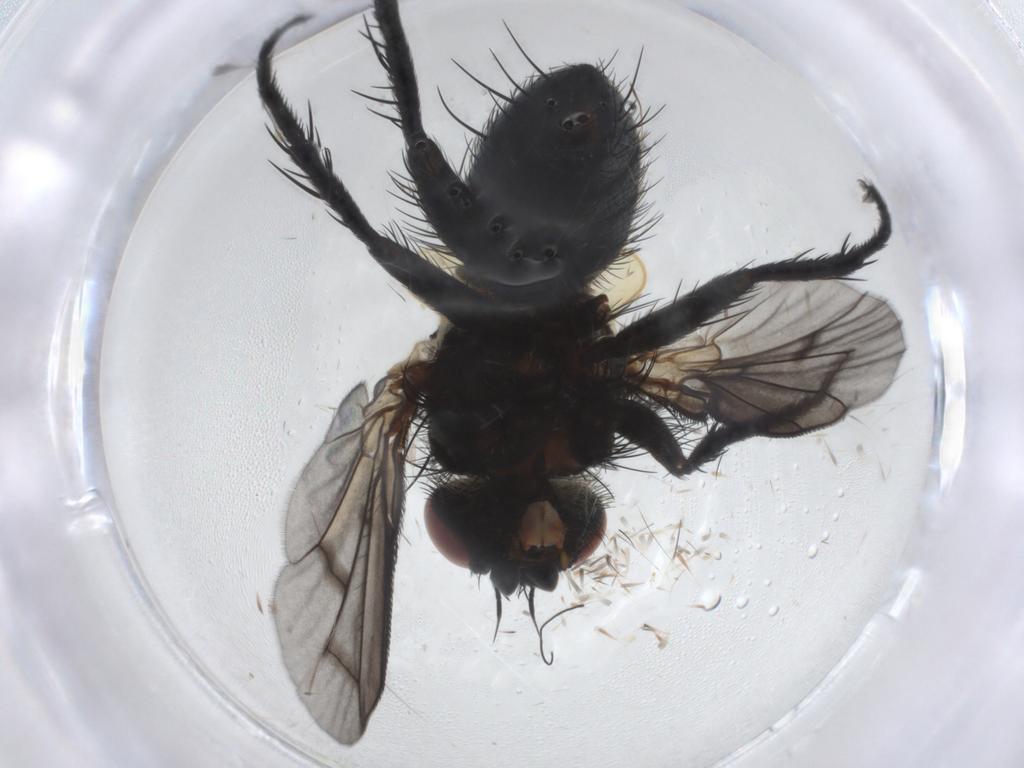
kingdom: Animalia
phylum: Arthropoda
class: Insecta
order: Diptera
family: Tachinidae
